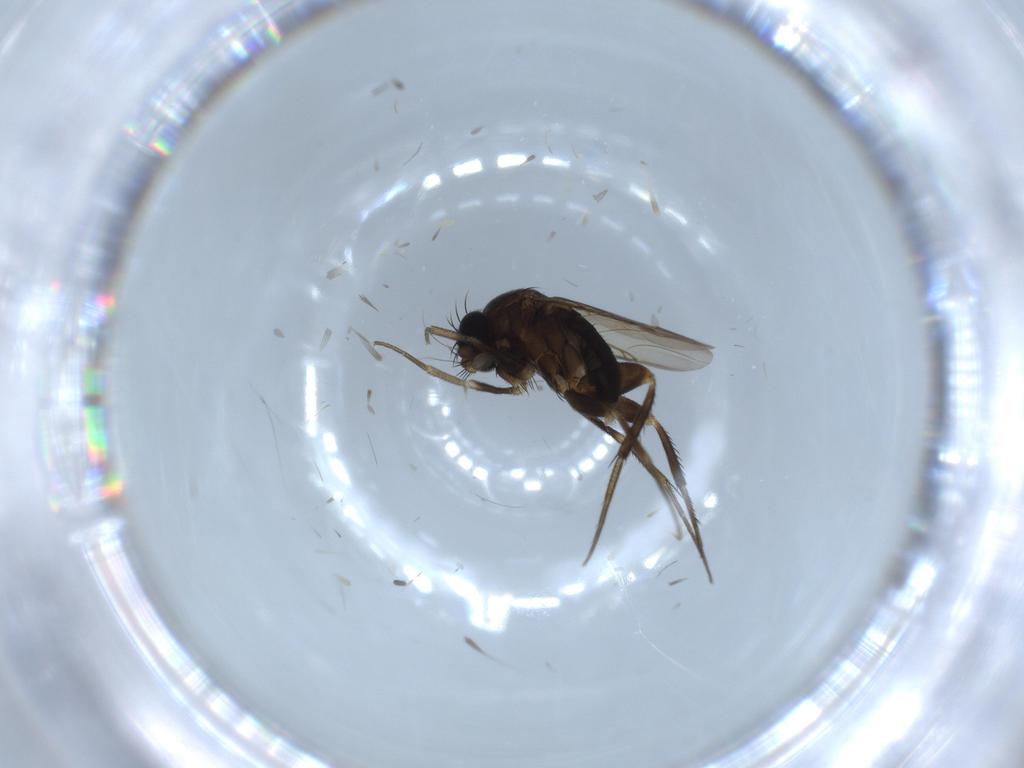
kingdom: Animalia
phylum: Arthropoda
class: Insecta
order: Diptera
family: Phoridae
